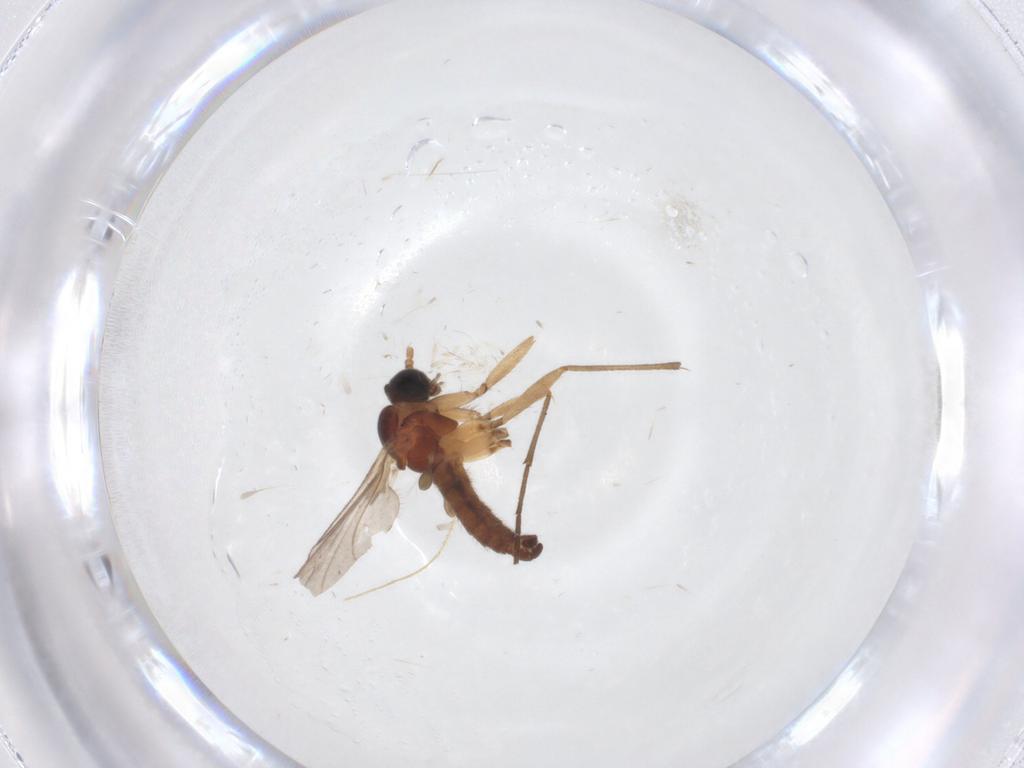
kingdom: Animalia
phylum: Arthropoda
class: Insecta
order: Diptera
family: Sciaridae
